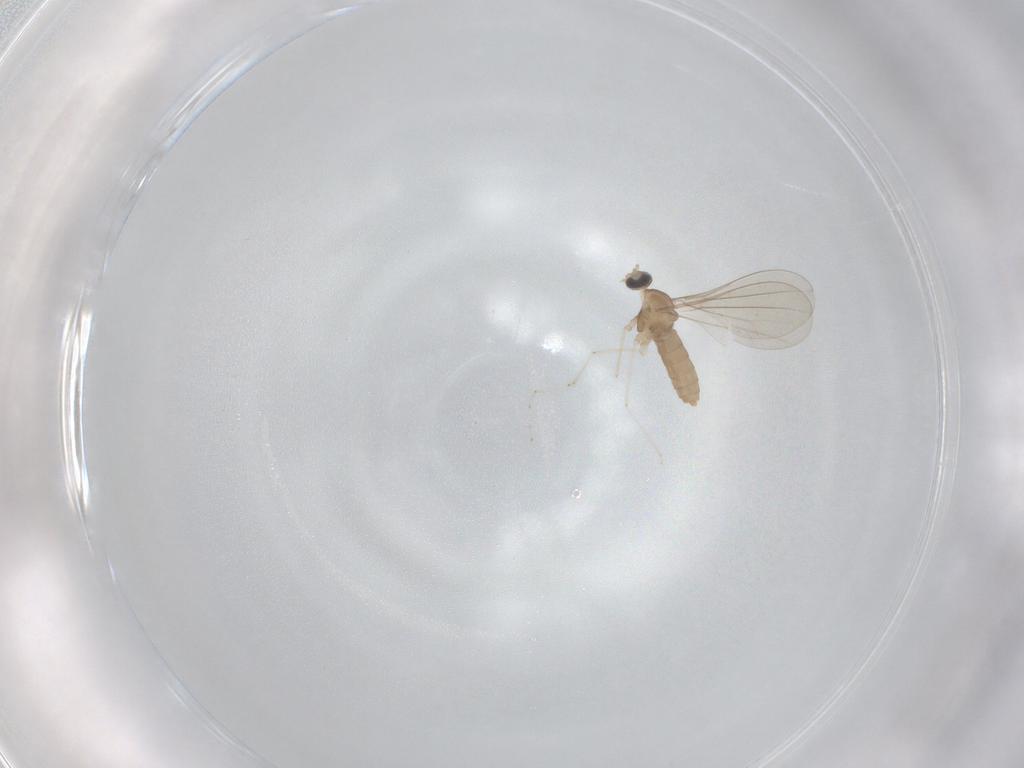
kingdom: Animalia
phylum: Arthropoda
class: Insecta
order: Diptera
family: Cecidomyiidae
